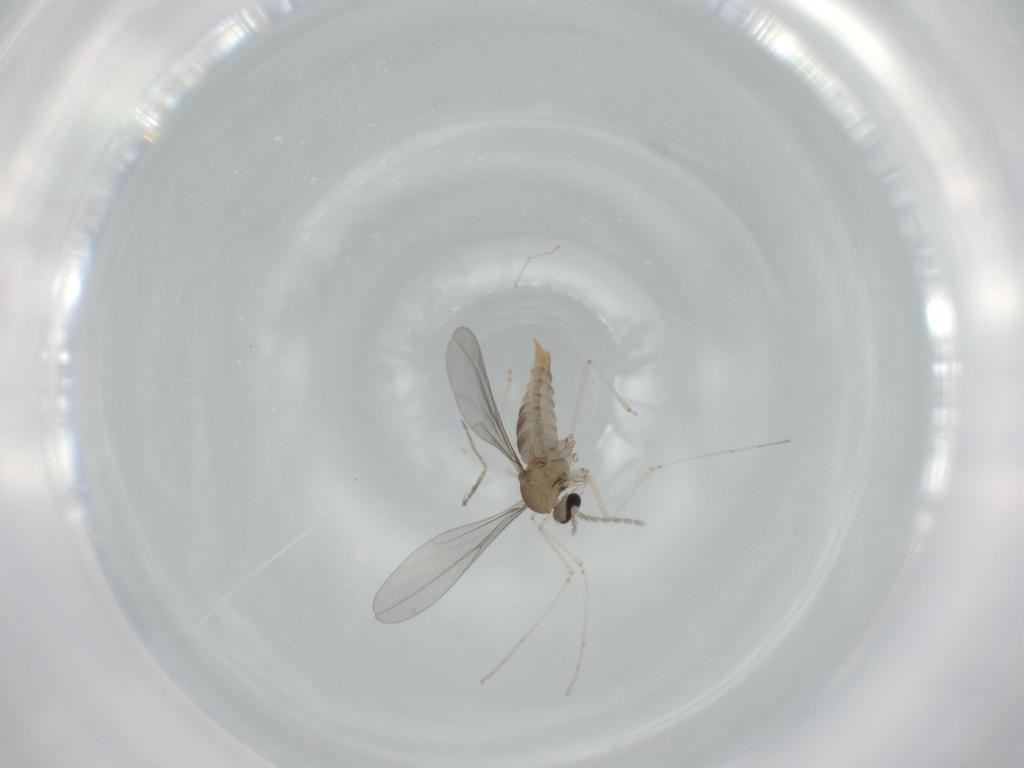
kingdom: Animalia
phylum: Arthropoda
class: Insecta
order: Diptera
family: Cecidomyiidae
